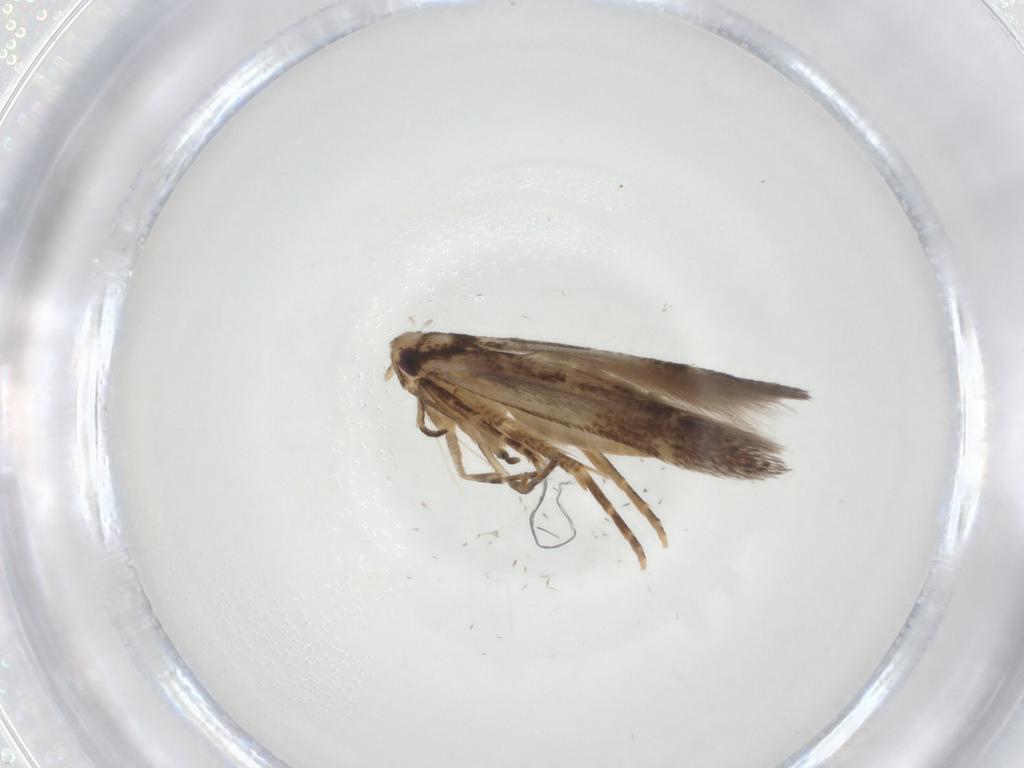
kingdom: Animalia
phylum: Arthropoda
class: Insecta
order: Lepidoptera
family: Cosmopterigidae
